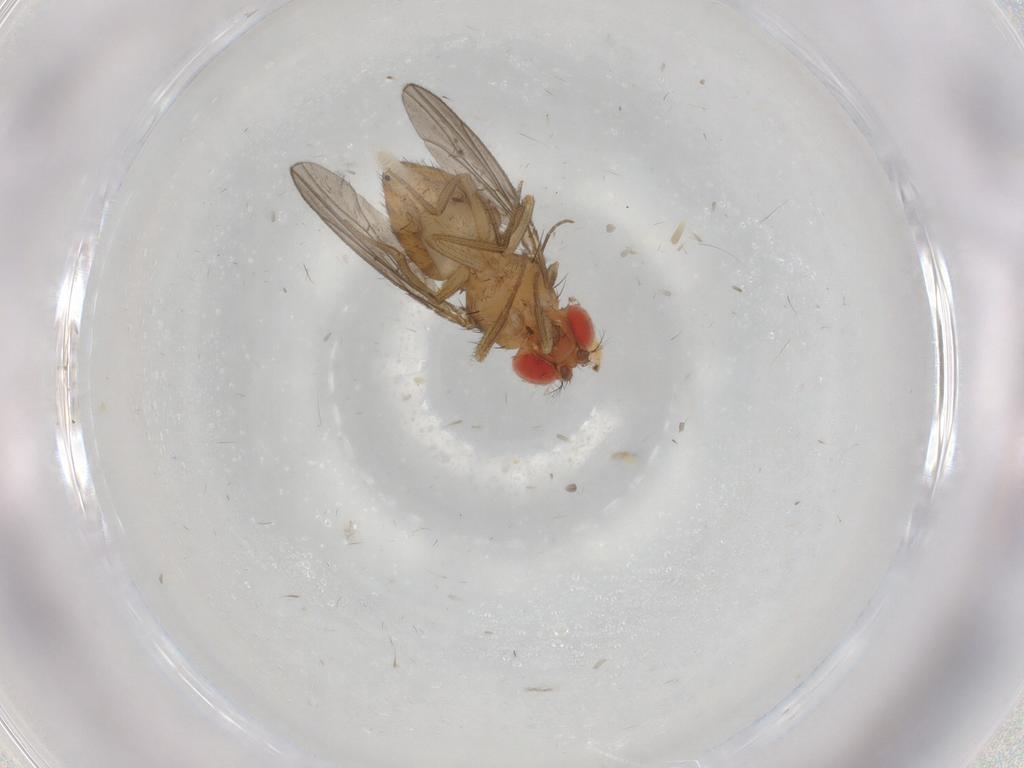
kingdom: Animalia
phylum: Arthropoda
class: Insecta
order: Diptera
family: Drosophilidae
